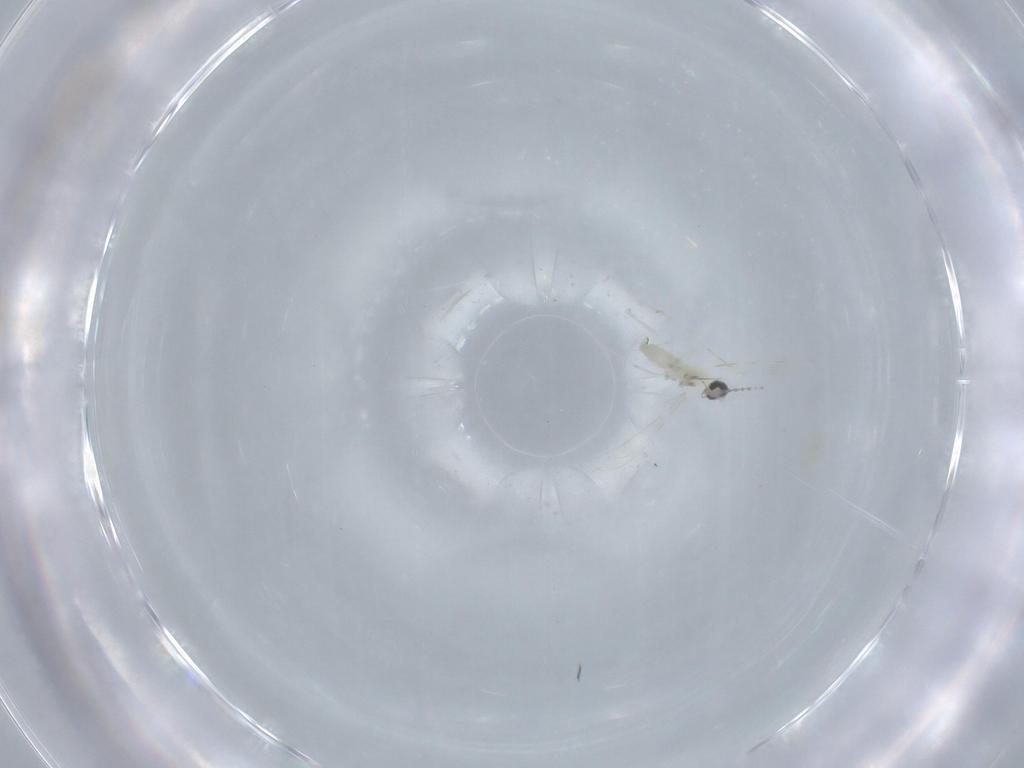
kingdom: Animalia
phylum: Arthropoda
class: Insecta
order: Diptera
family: Cecidomyiidae
